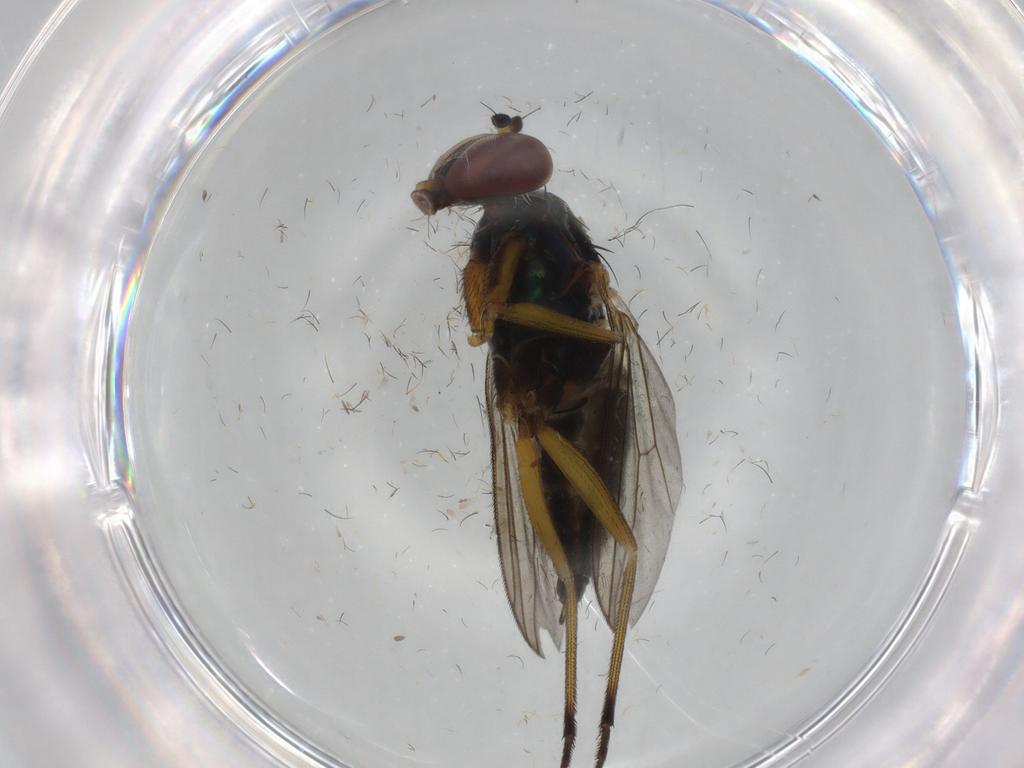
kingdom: Animalia
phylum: Arthropoda
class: Insecta
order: Diptera
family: Dolichopodidae
